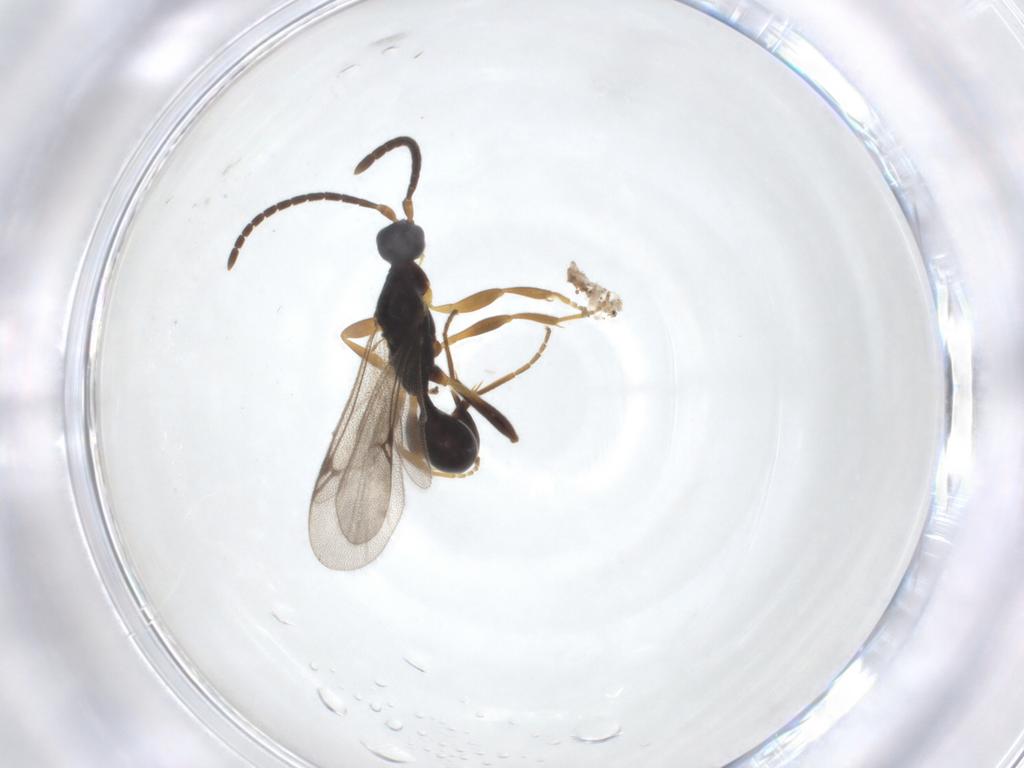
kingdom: Animalia
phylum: Arthropoda
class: Insecta
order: Hymenoptera
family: Proctotrupidae
